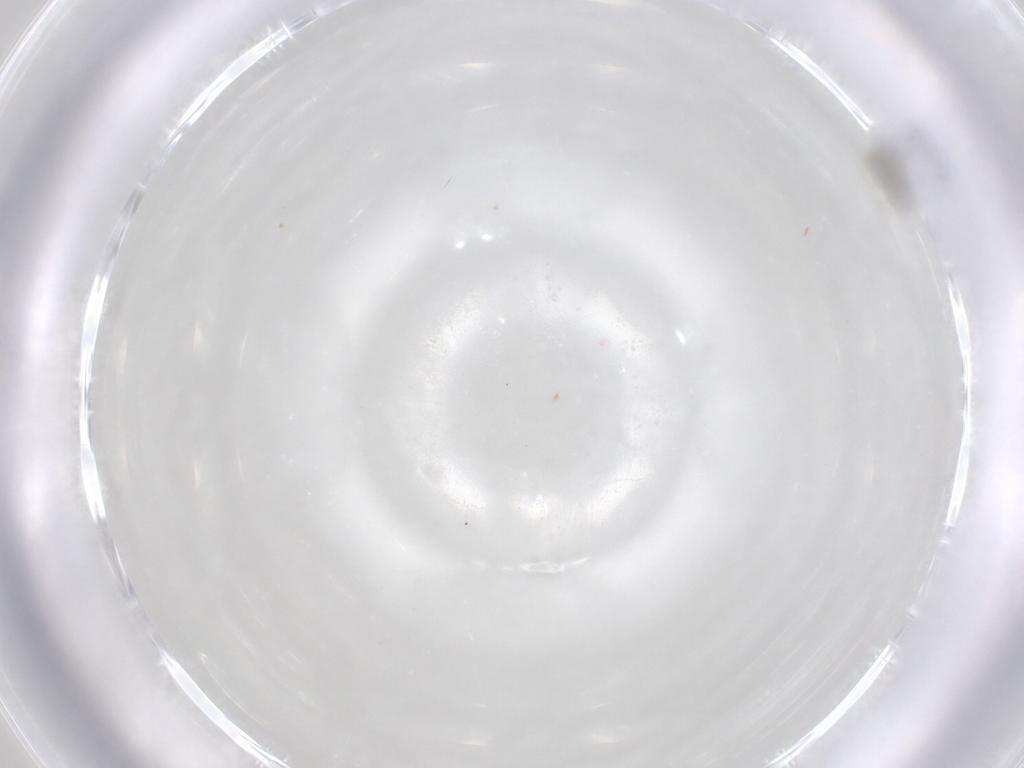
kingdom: Animalia
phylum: Arthropoda
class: Insecta
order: Hymenoptera
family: Mymaridae
